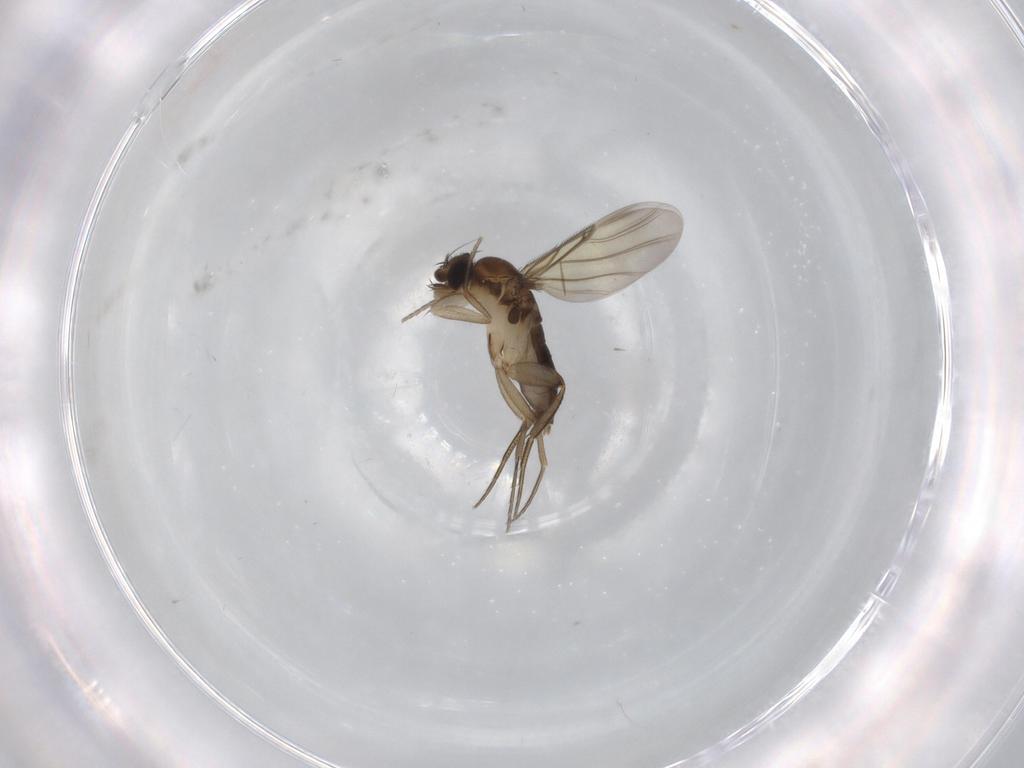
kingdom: Animalia
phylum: Arthropoda
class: Insecta
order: Diptera
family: Phoridae
